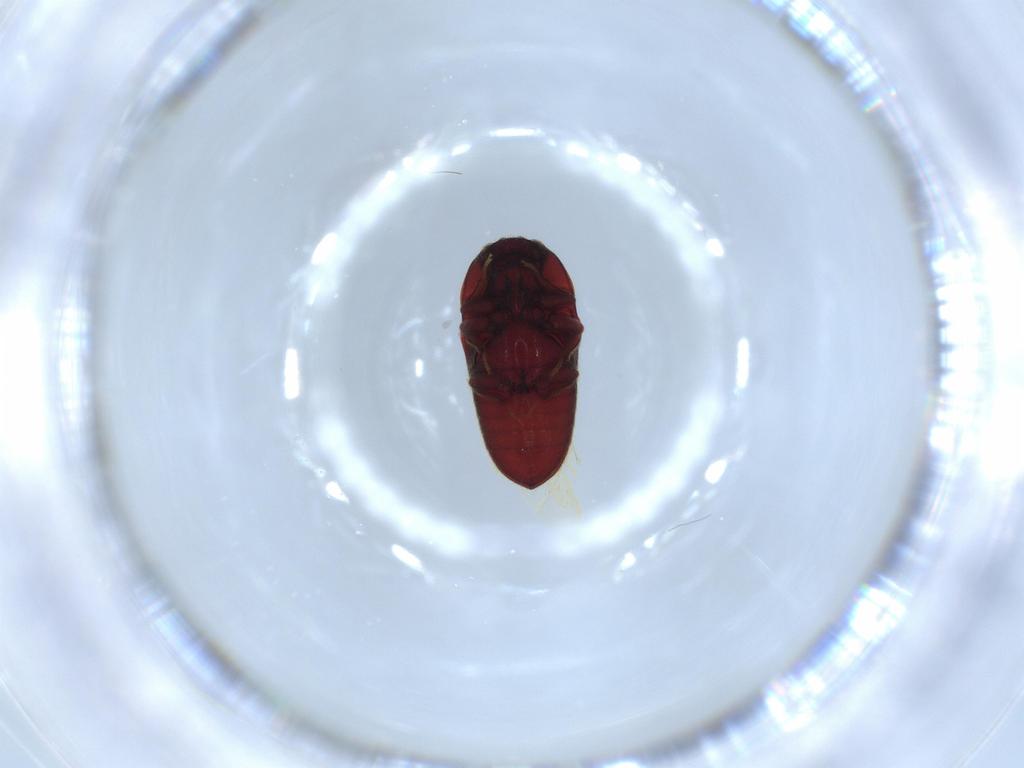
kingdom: Animalia
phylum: Arthropoda
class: Insecta
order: Coleoptera
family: Throscidae
